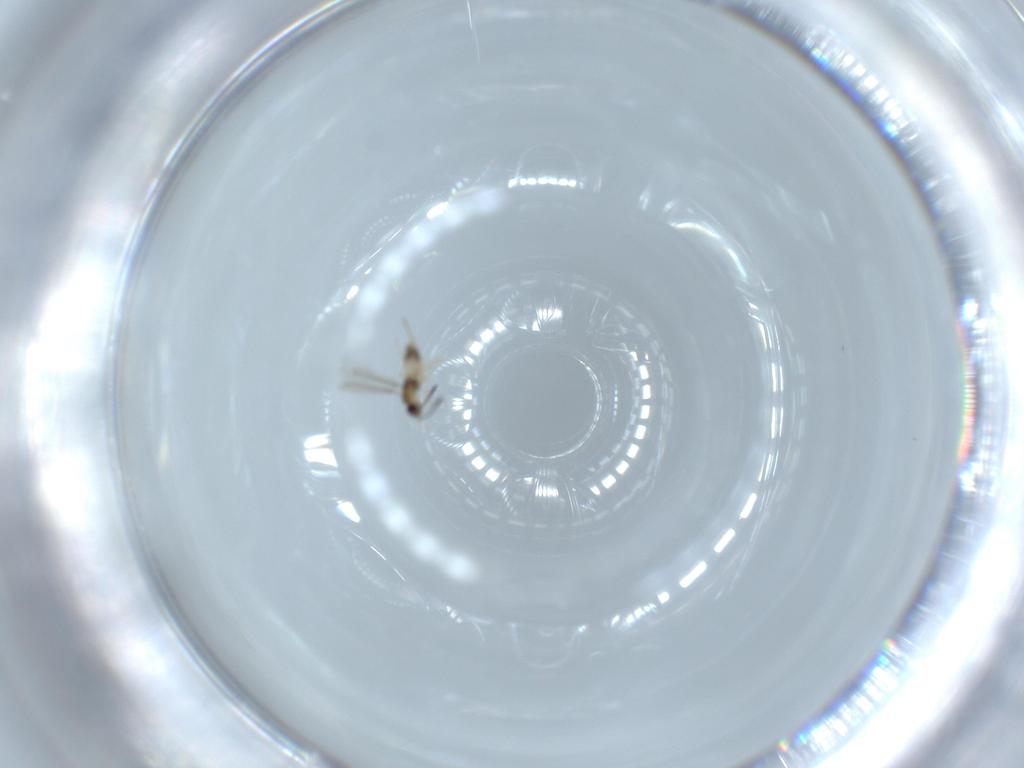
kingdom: Animalia
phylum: Arthropoda
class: Insecta
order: Hymenoptera
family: Mymaridae
